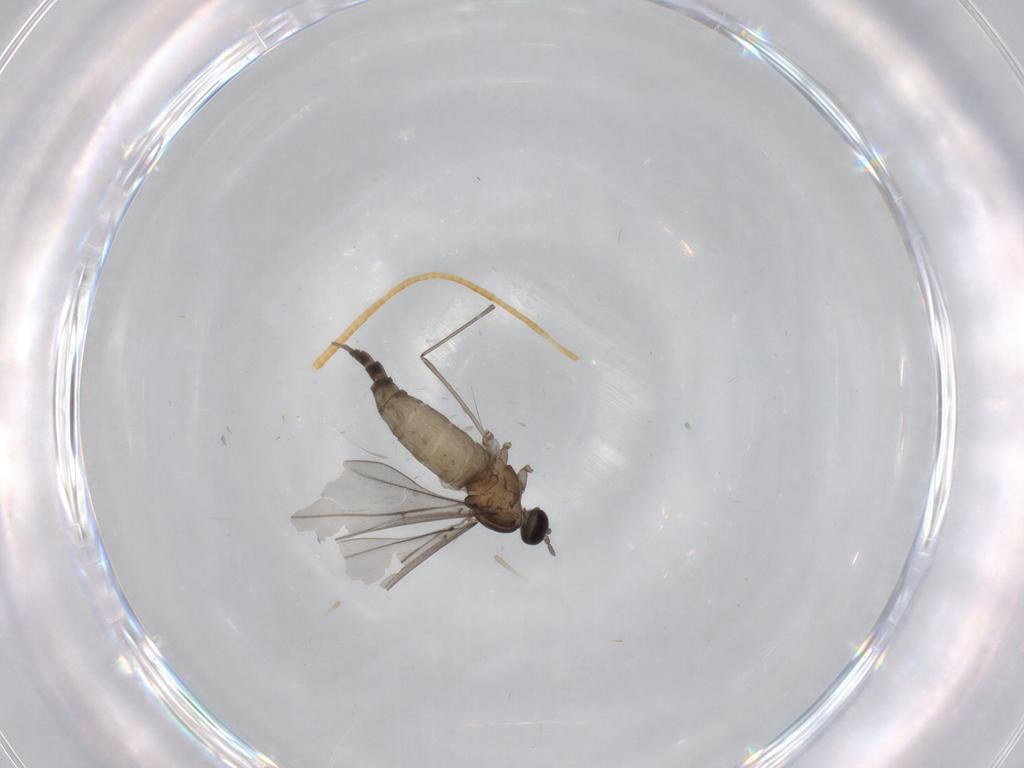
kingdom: Animalia
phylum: Arthropoda
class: Insecta
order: Diptera
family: Cecidomyiidae
